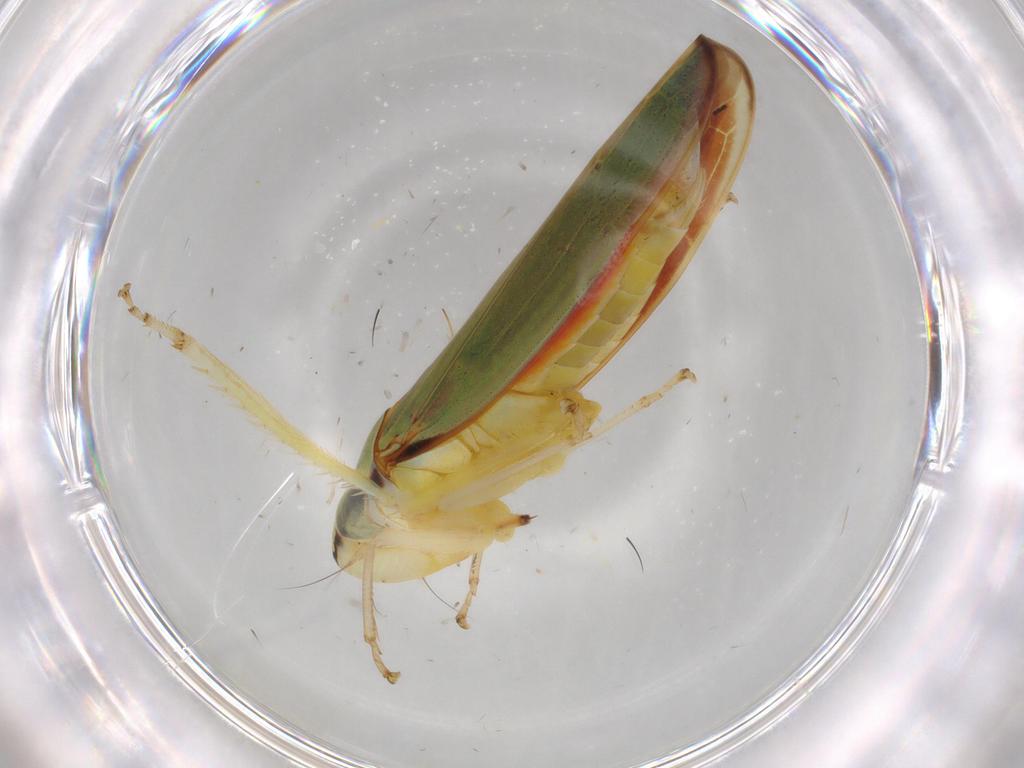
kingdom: Animalia
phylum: Arthropoda
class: Insecta
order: Hemiptera
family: Cicadellidae
